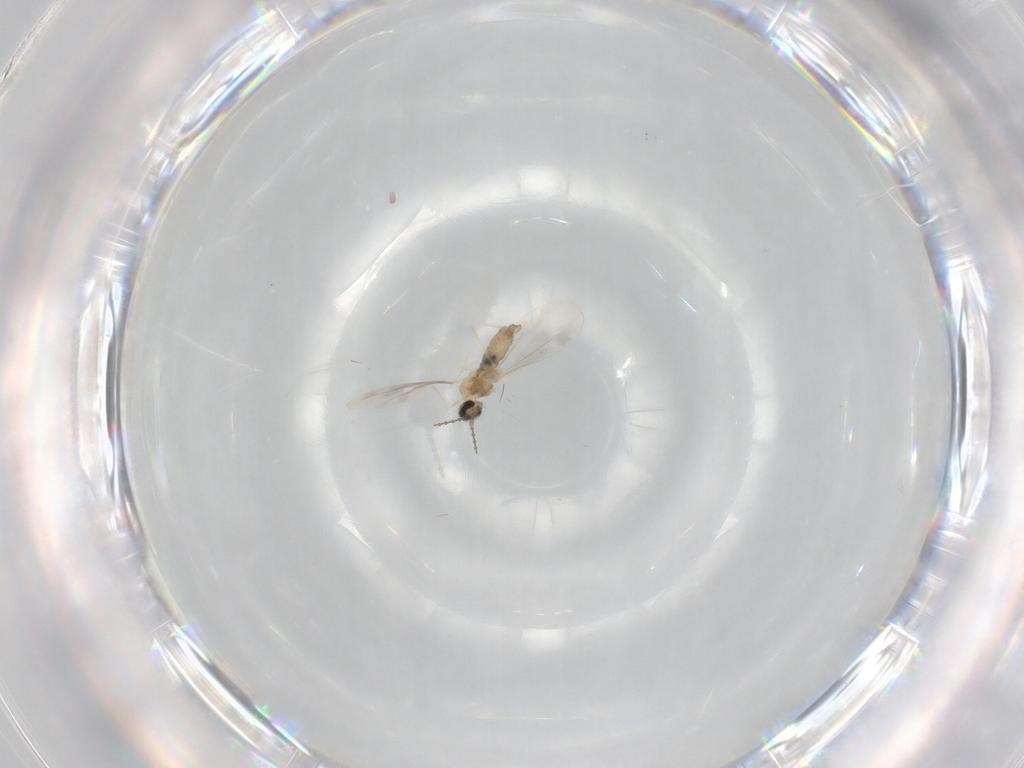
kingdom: Animalia
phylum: Arthropoda
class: Insecta
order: Diptera
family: Cecidomyiidae
